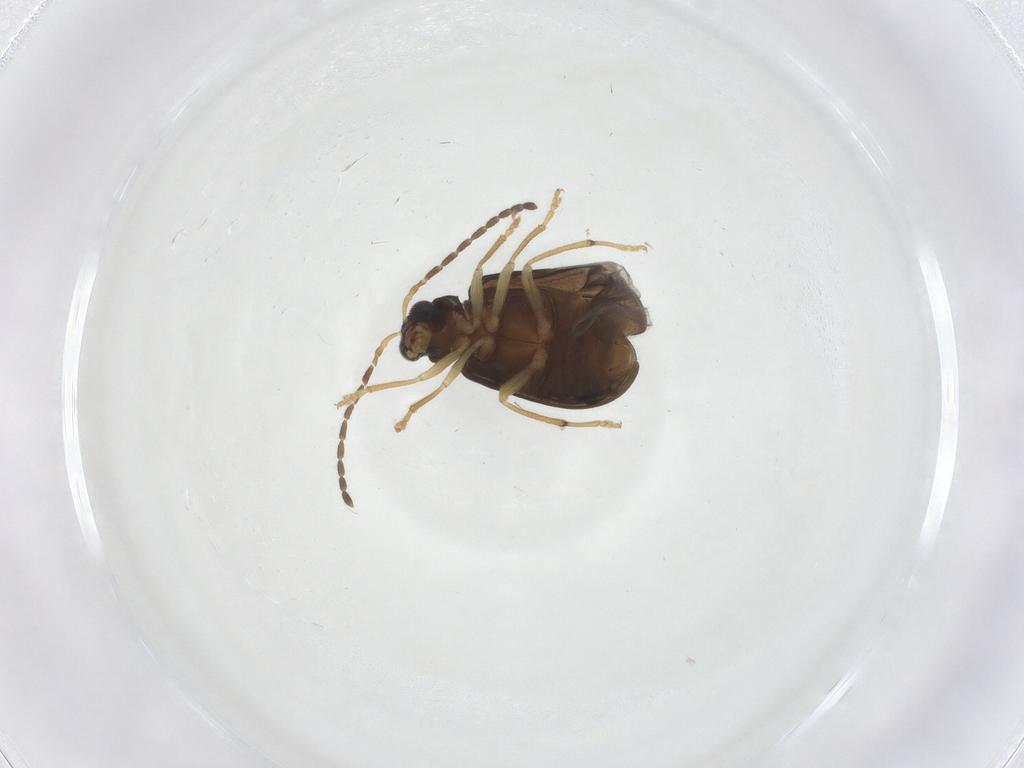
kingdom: Animalia
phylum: Arthropoda
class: Insecta
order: Coleoptera
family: Chrysomelidae
